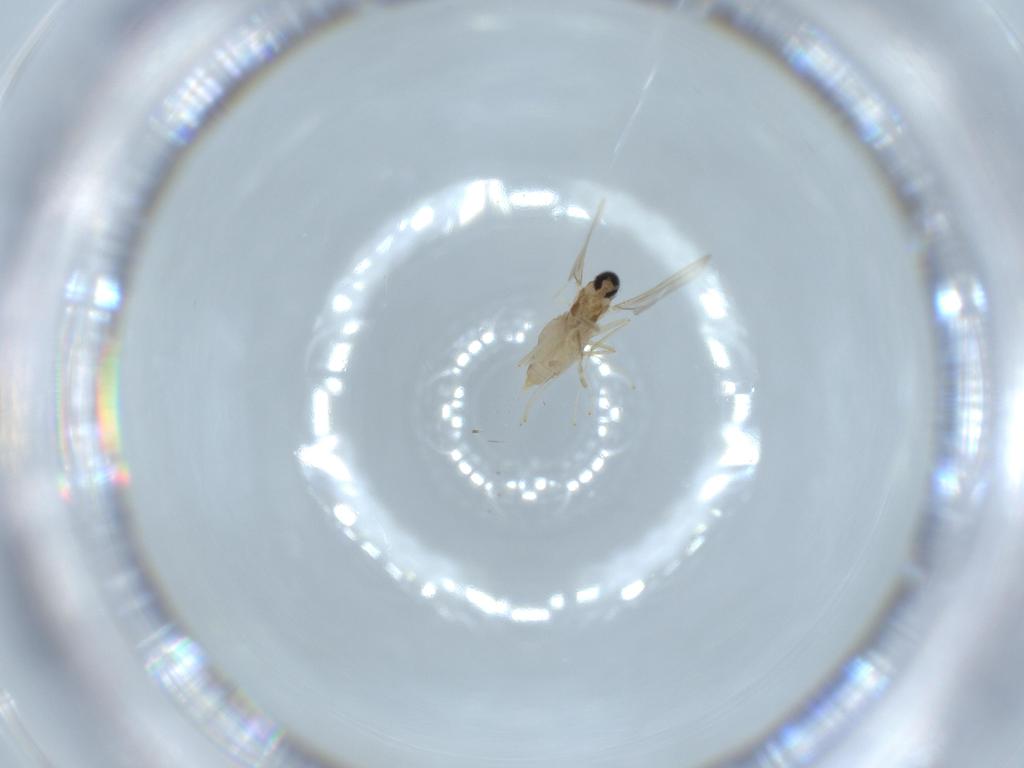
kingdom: Animalia
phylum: Arthropoda
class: Insecta
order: Diptera
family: Cecidomyiidae
